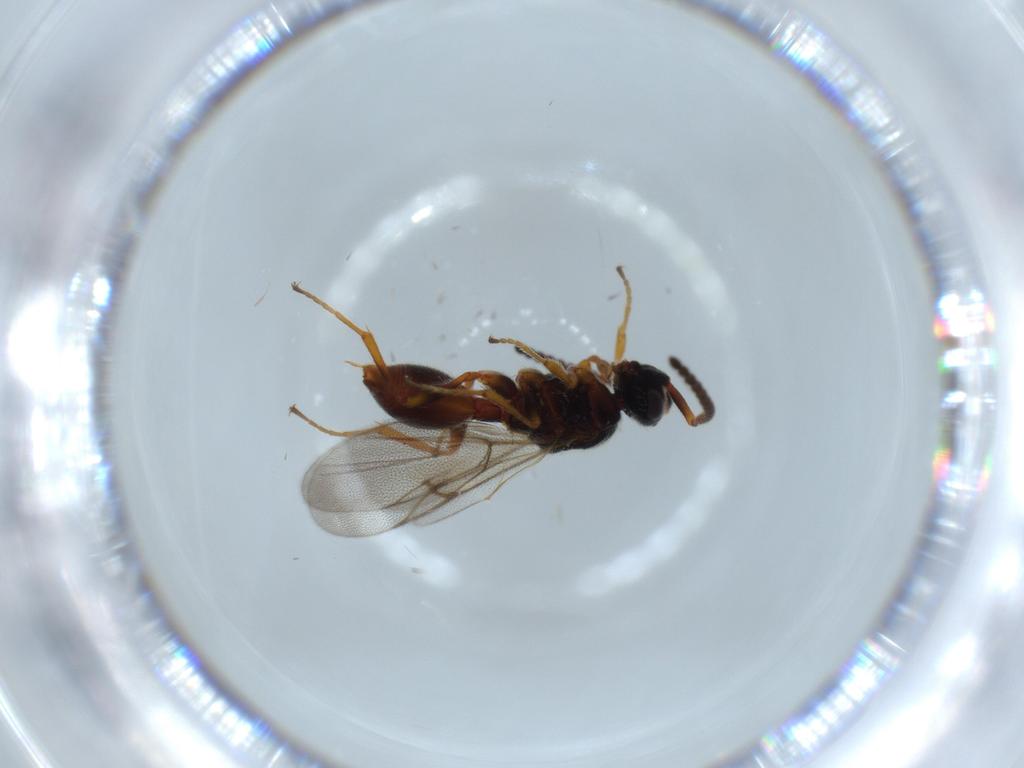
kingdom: Animalia
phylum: Arthropoda
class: Insecta
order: Hymenoptera
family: Diapriidae
